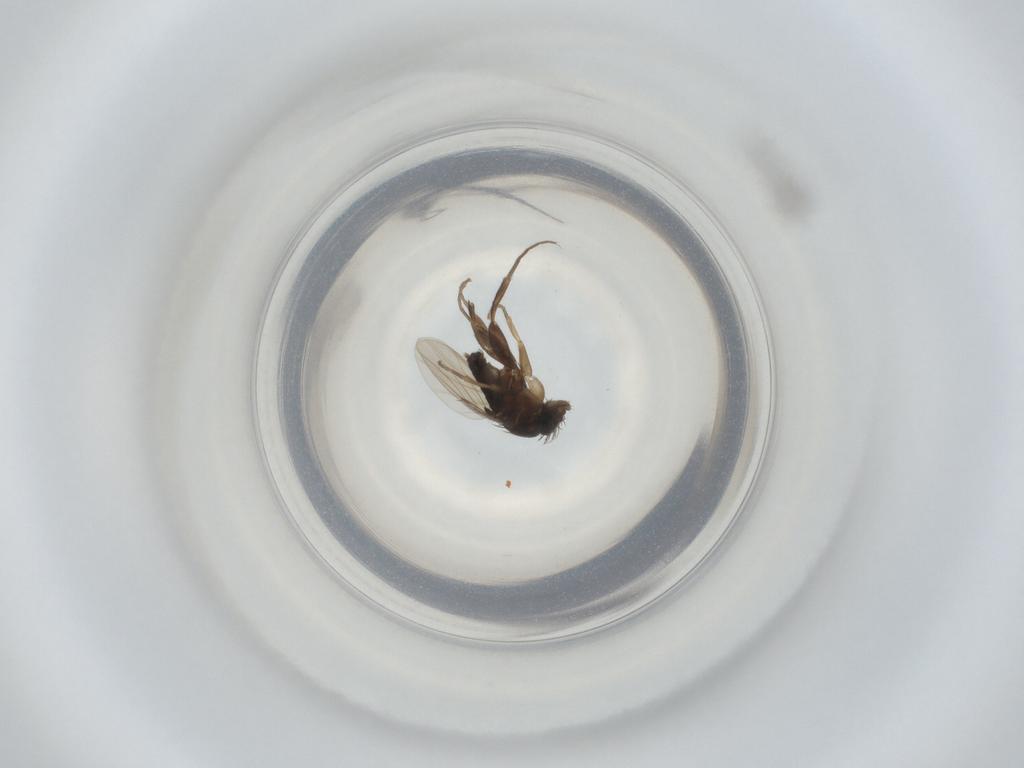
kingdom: Animalia
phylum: Arthropoda
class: Insecta
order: Diptera
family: Phoridae
